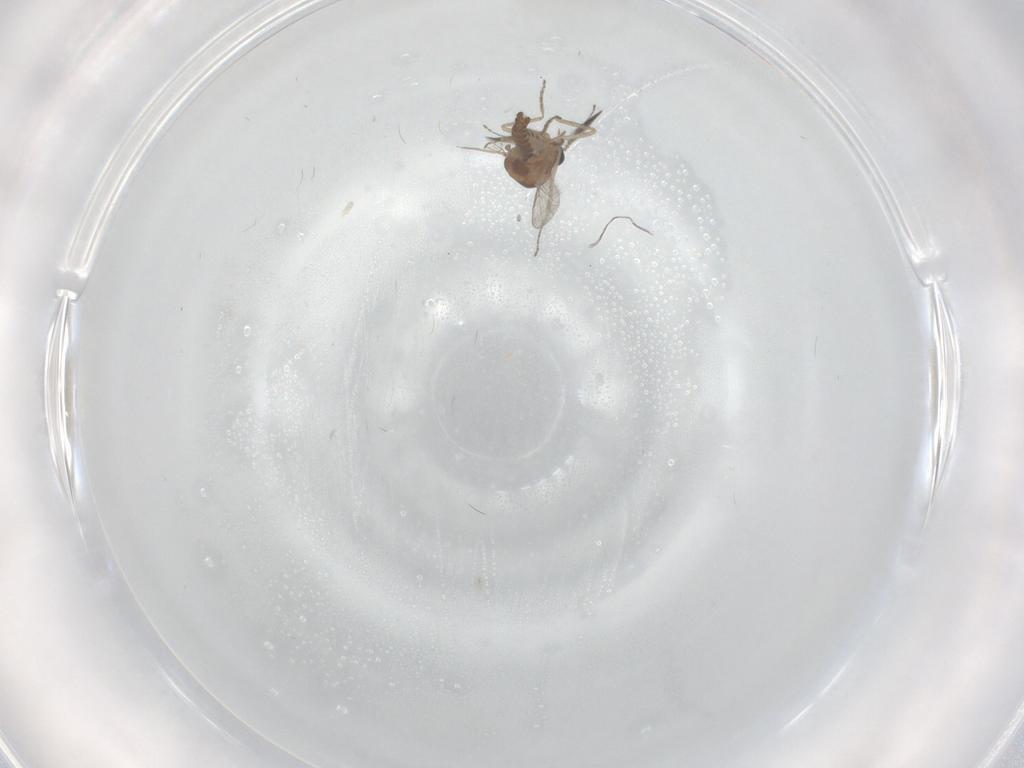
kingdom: Animalia
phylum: Arthropoda
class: Insecta
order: Diptera
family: Ceratopogonidae
